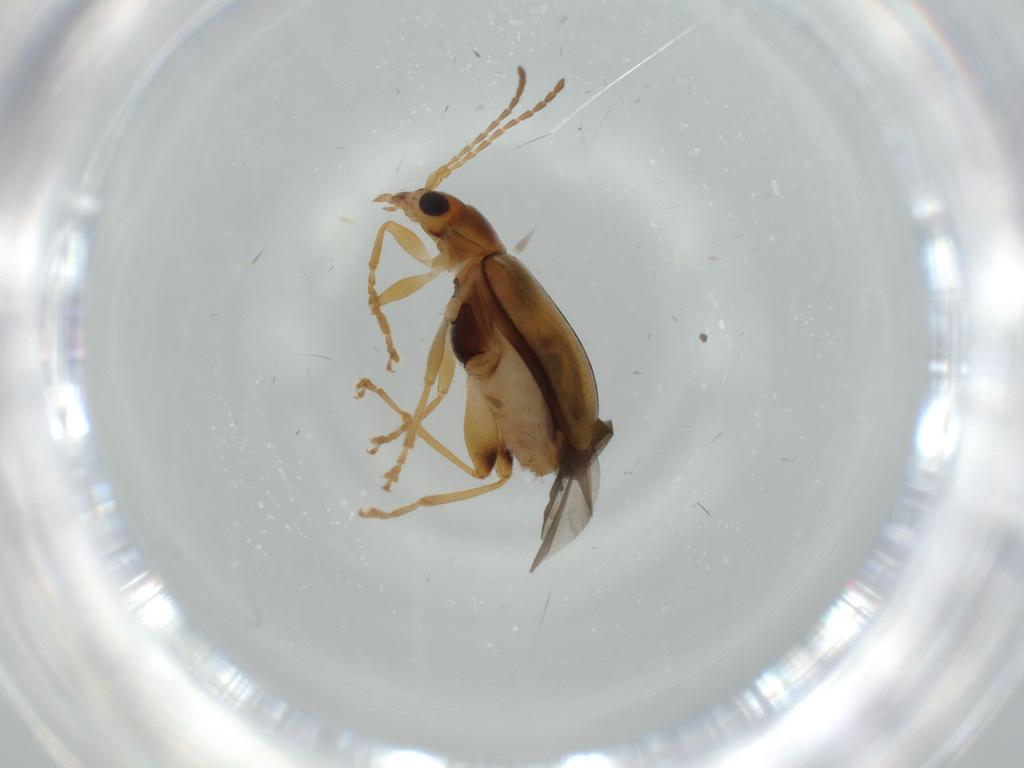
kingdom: Animalia
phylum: Arthropoda
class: Insecta
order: Coleoptera
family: Chrysomelidae
